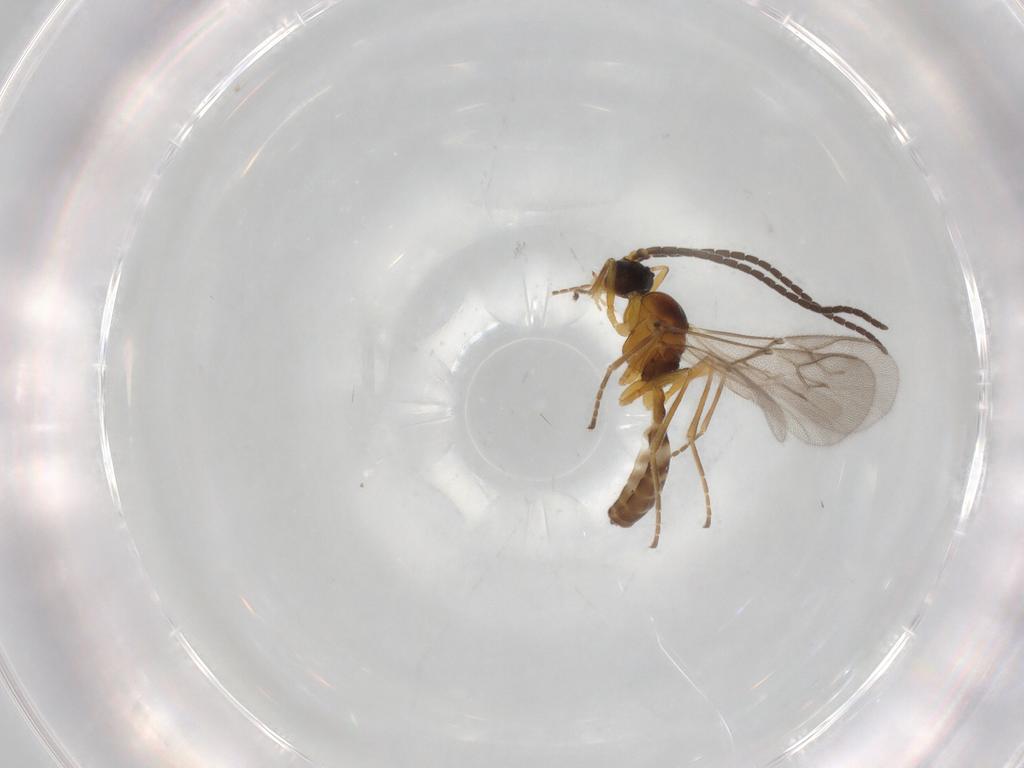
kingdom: Animalia
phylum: Arthropoda
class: Insecta
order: Hymenoptera
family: Braconidae
